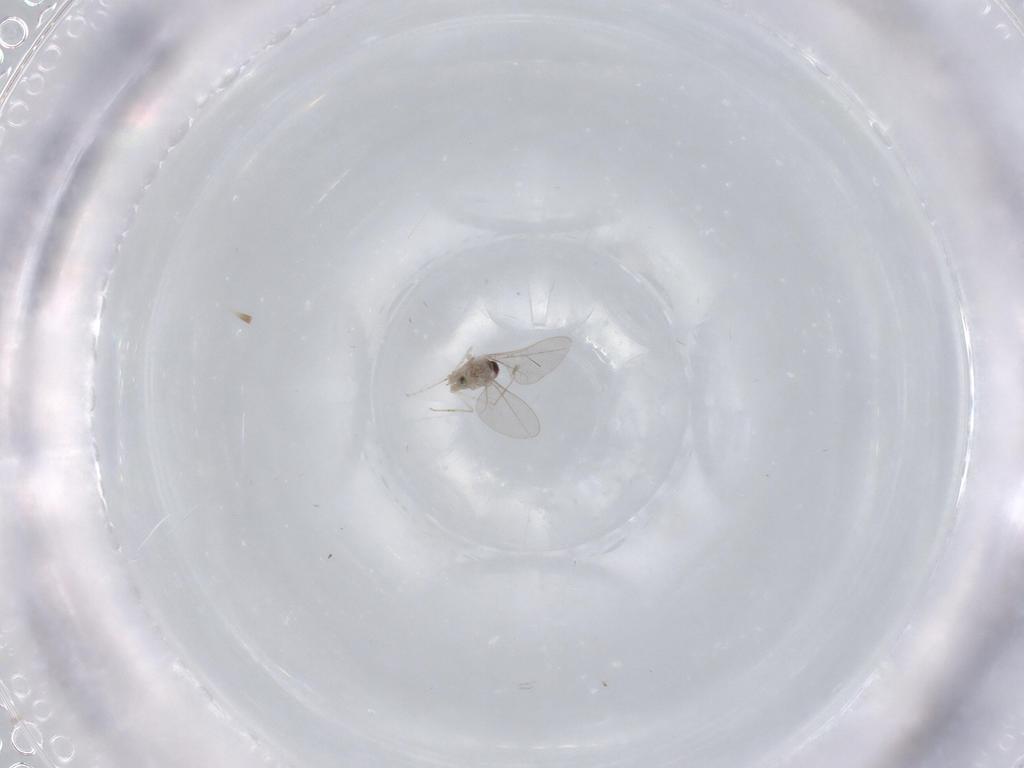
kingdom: Animalia
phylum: Arthropoda
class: Insecta
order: Diptera
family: Cecidomyiidae
